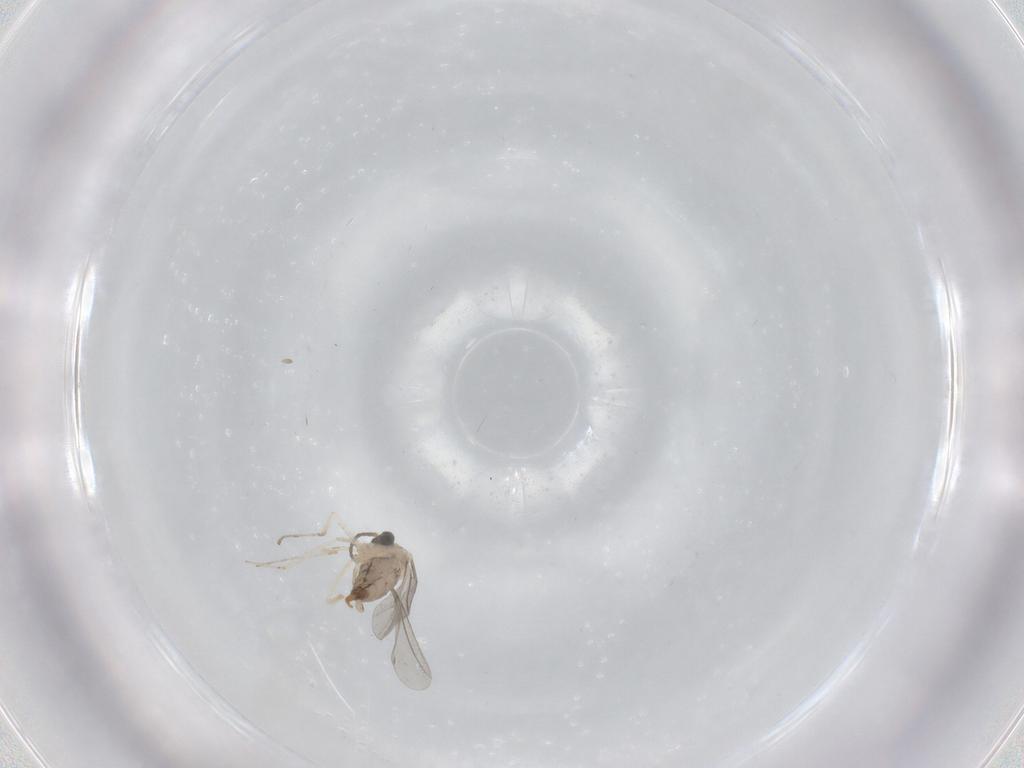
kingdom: Animalia
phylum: Arthropoda
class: Insecta
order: Diptera
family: Cecidomyiidae
